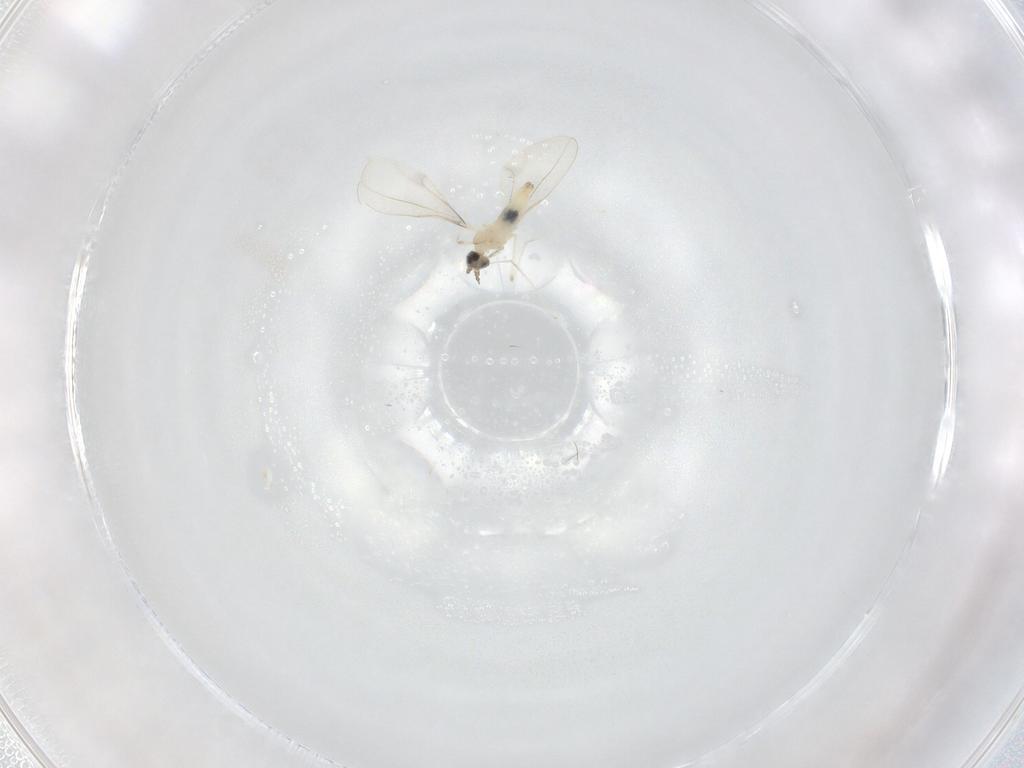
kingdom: Animalia
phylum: Arthropoda
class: Insecta
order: Diptera
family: Cecidomyiidae
